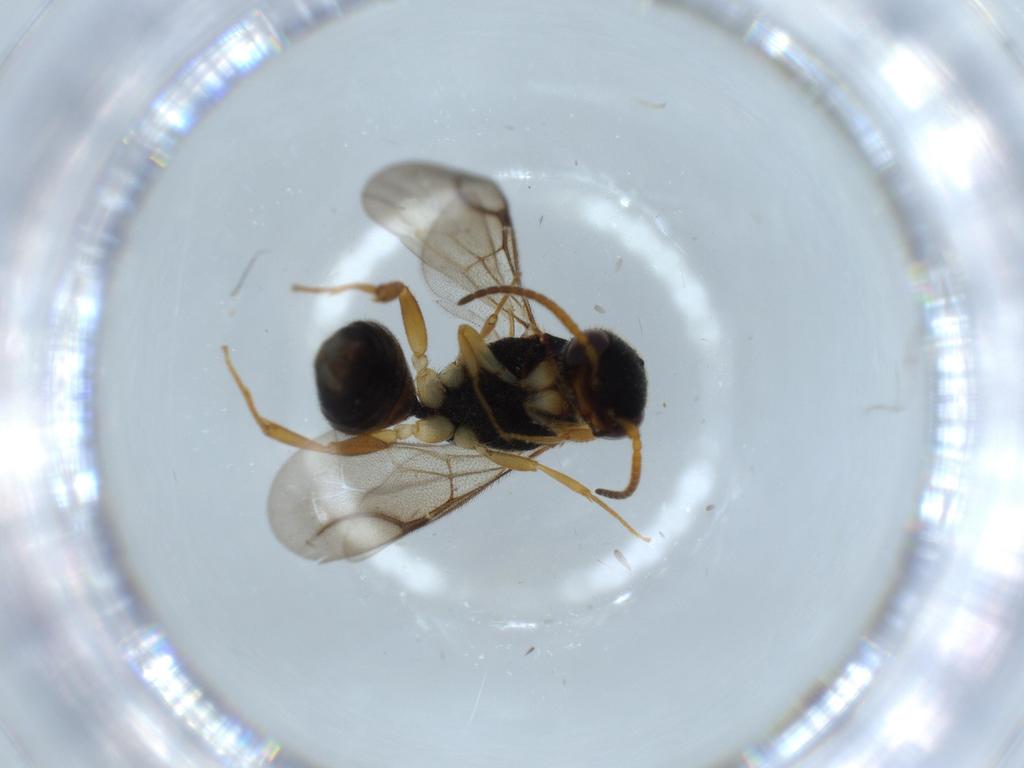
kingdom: Animalia
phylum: Arthropoda
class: Insecta
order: Hymenoptera
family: Bethylidae
